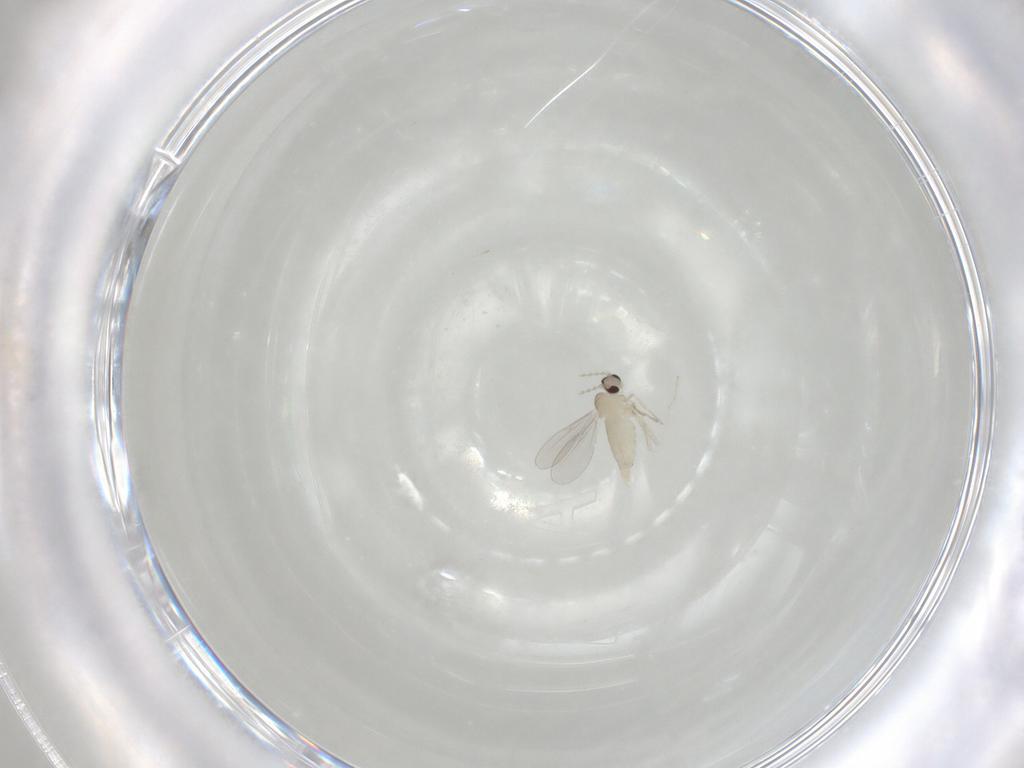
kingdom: Animalia
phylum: Arthropoda
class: Insecta
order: Diptera
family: Cecidomyiidae
